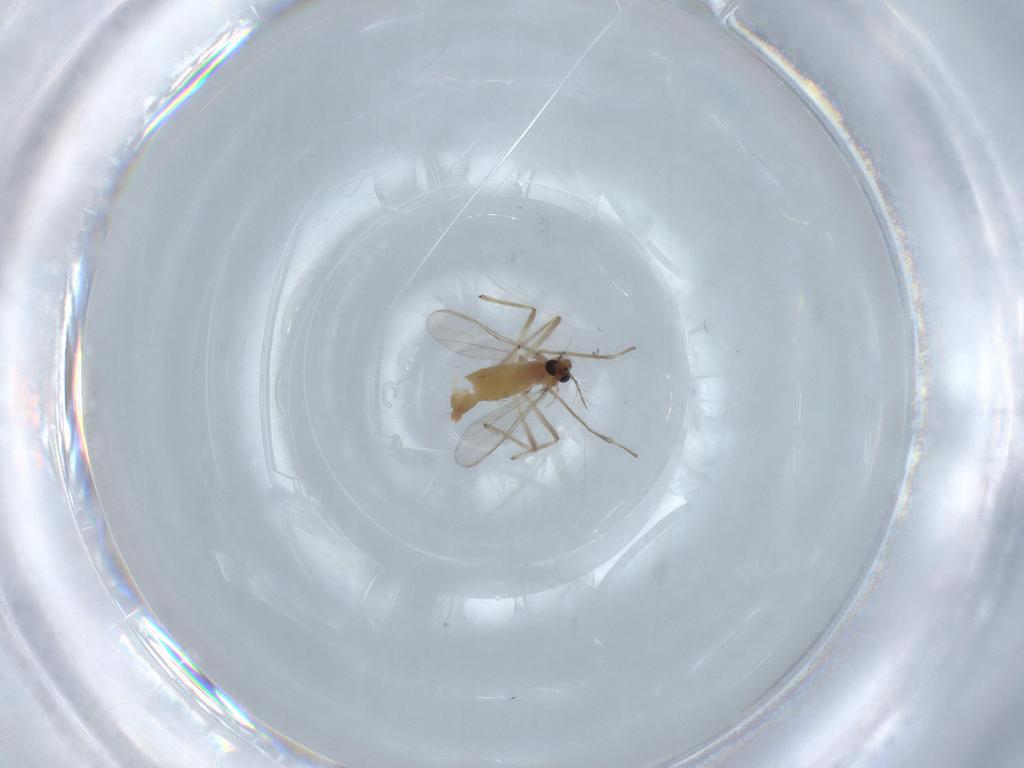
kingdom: Animalia
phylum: Arthropoda
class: Insecta
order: Diptera
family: Chironomidae
